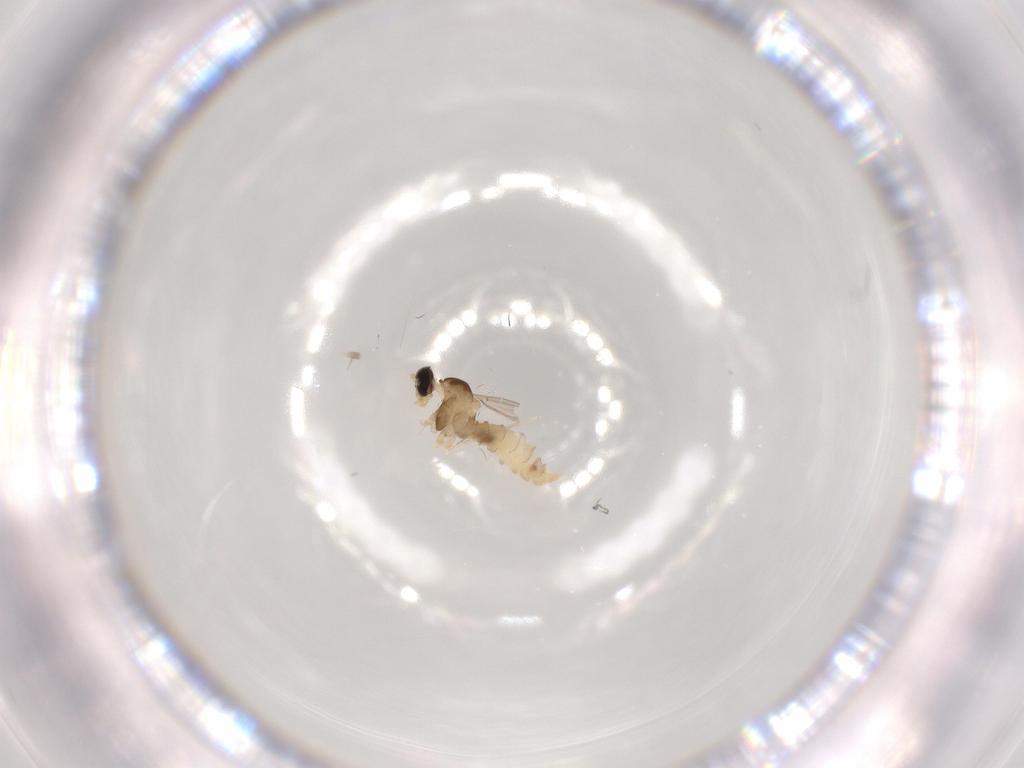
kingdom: Animalia
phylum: Arthropoda
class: Insecta
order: Diptera
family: Cecidomyiidae
